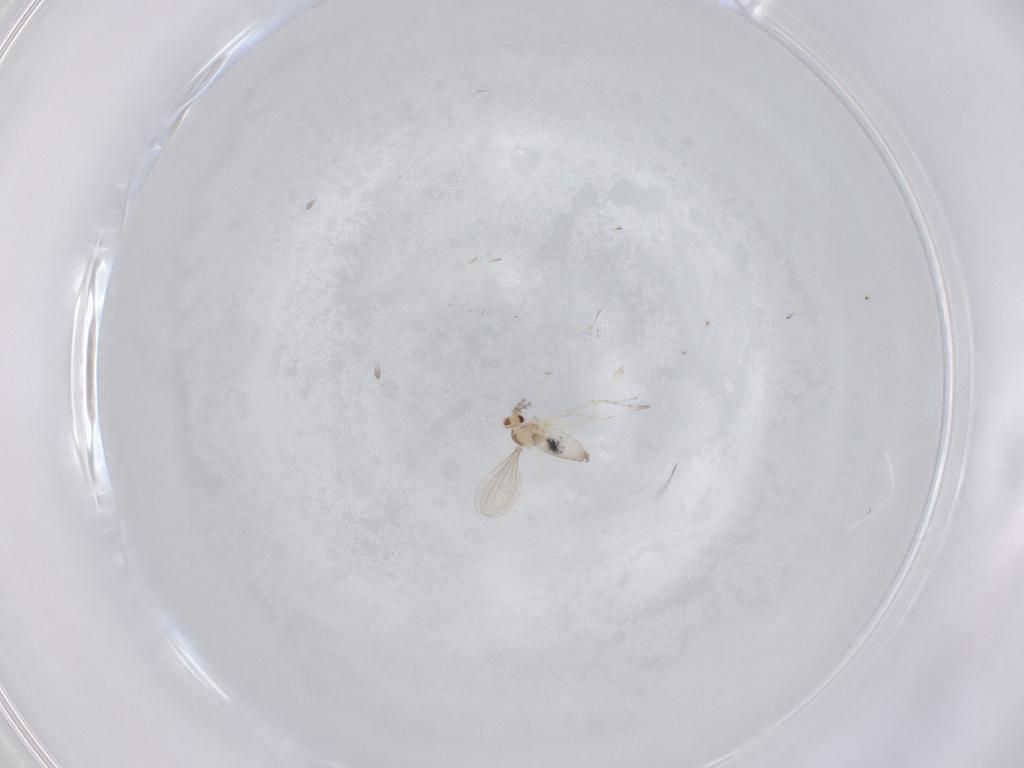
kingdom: Animalia
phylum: Arthropoda
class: Insecta
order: Diptera
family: Cecidomyiidae
